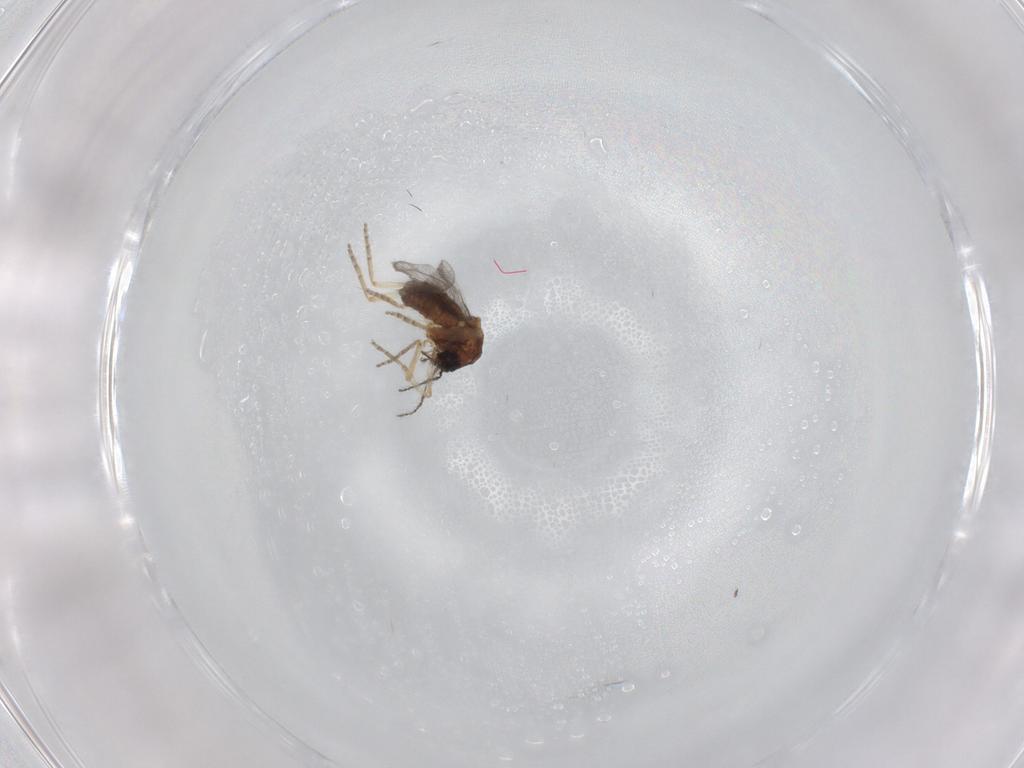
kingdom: Animalia
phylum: Arthropoda
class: Insecta
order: Diptera
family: Ceratopogonidae
